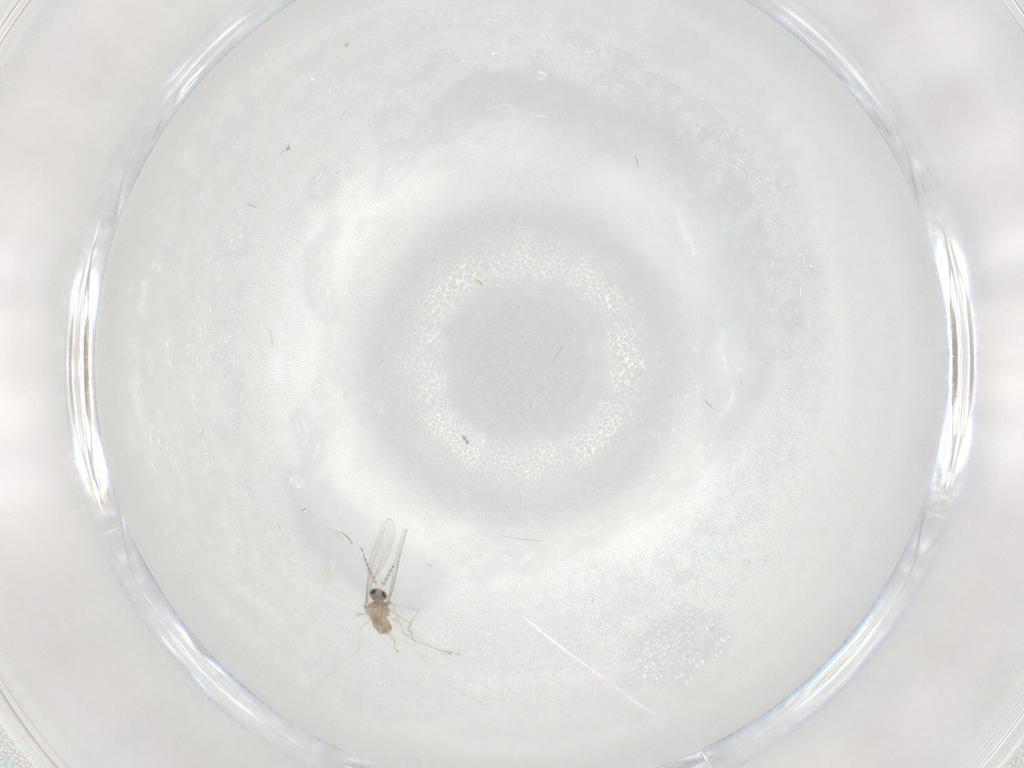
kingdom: Animalia
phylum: Arthropoda
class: Insecta
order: Diptera
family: Cecidomyiidae
